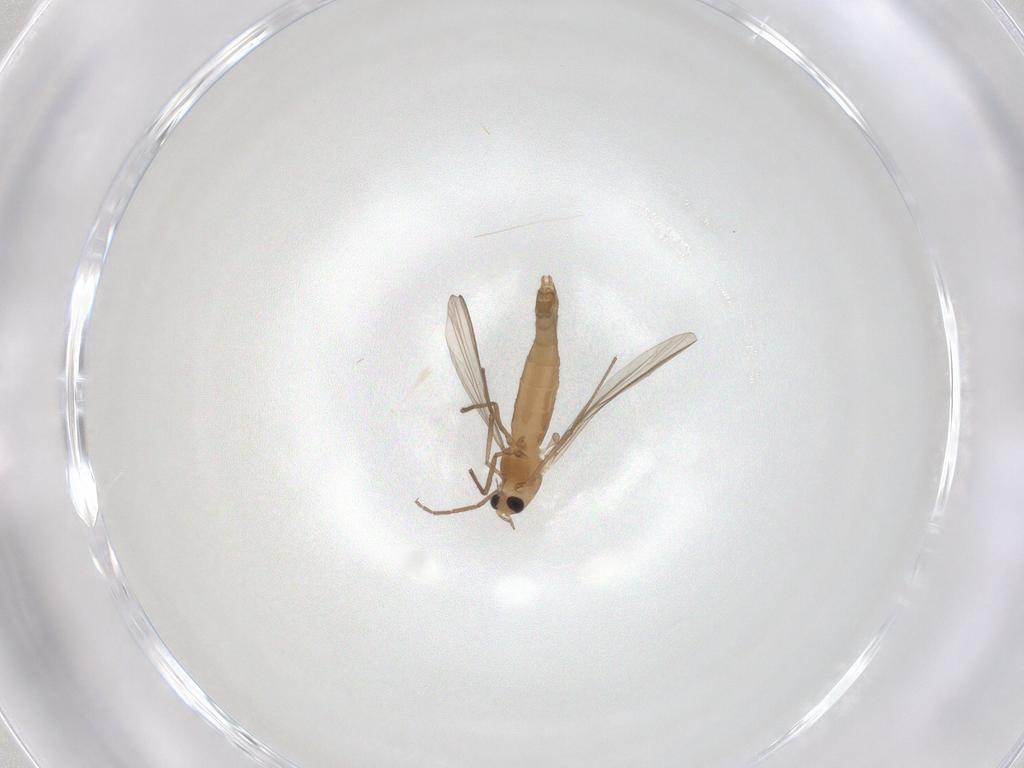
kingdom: Animalia
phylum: Arthropoda
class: Insecta
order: Diptera
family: Chironomidae
